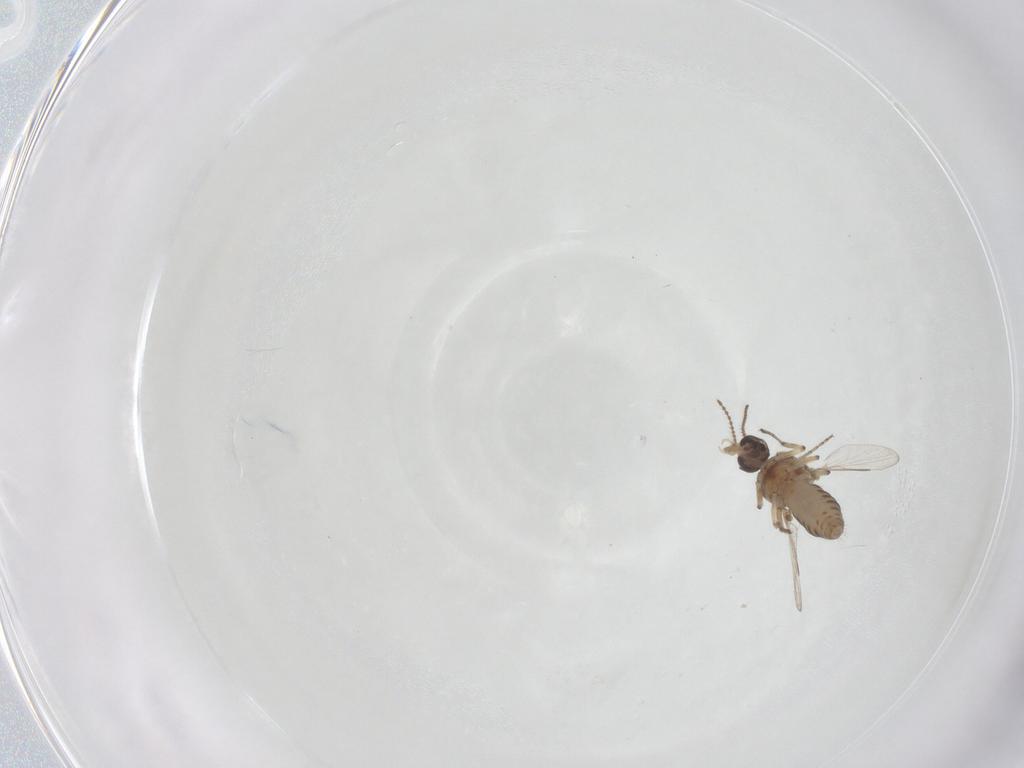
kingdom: Animalia
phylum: Arthropoda
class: Insecta
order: Diptera
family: Ceratopogonidae
